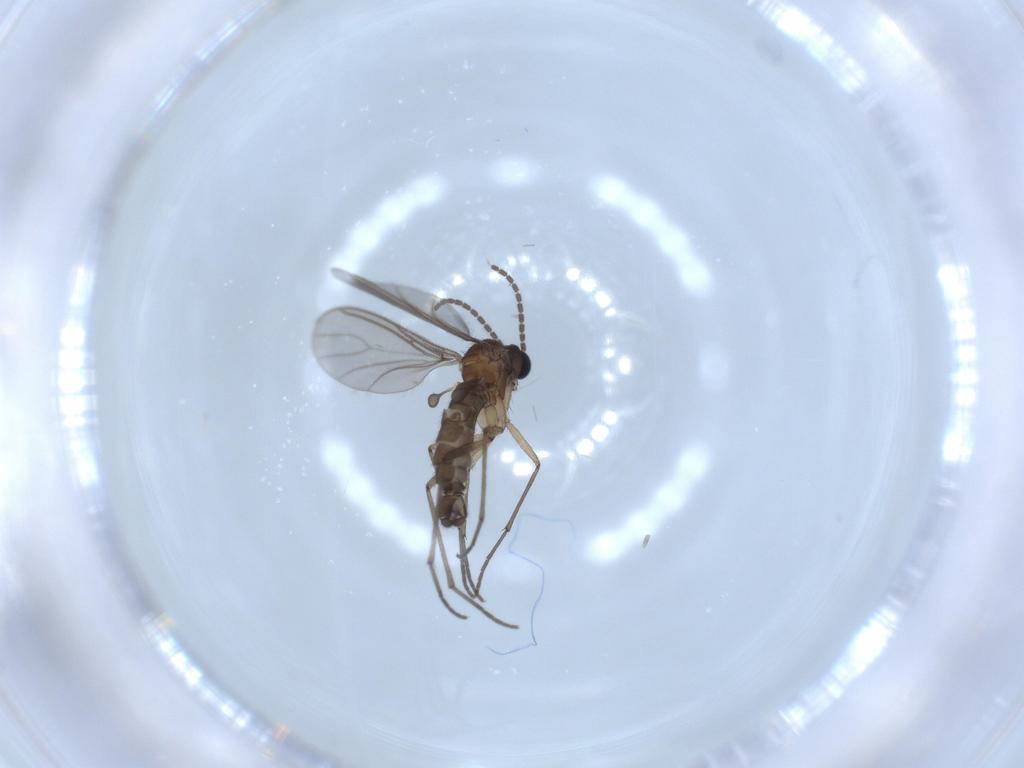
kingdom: Animalia
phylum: Arthropoda
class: Insecta
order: Diptera
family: Sciaridae
